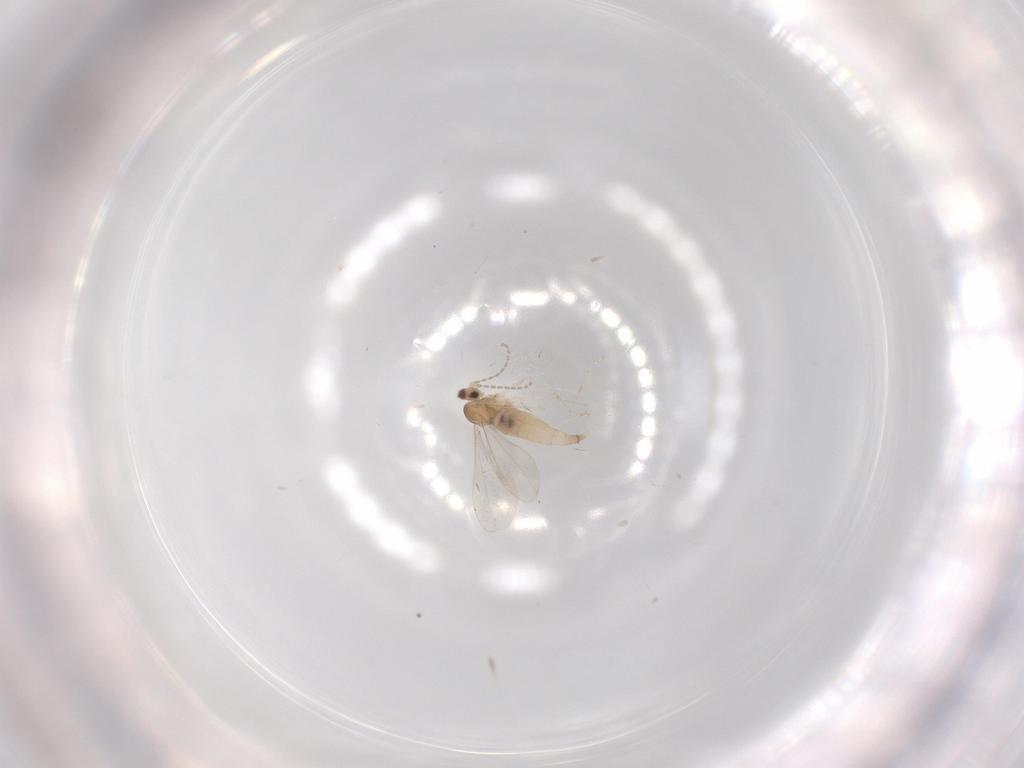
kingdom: Animalia
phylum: Arthropoda
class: Insecta
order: Diptera
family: Cecidomyiidae
